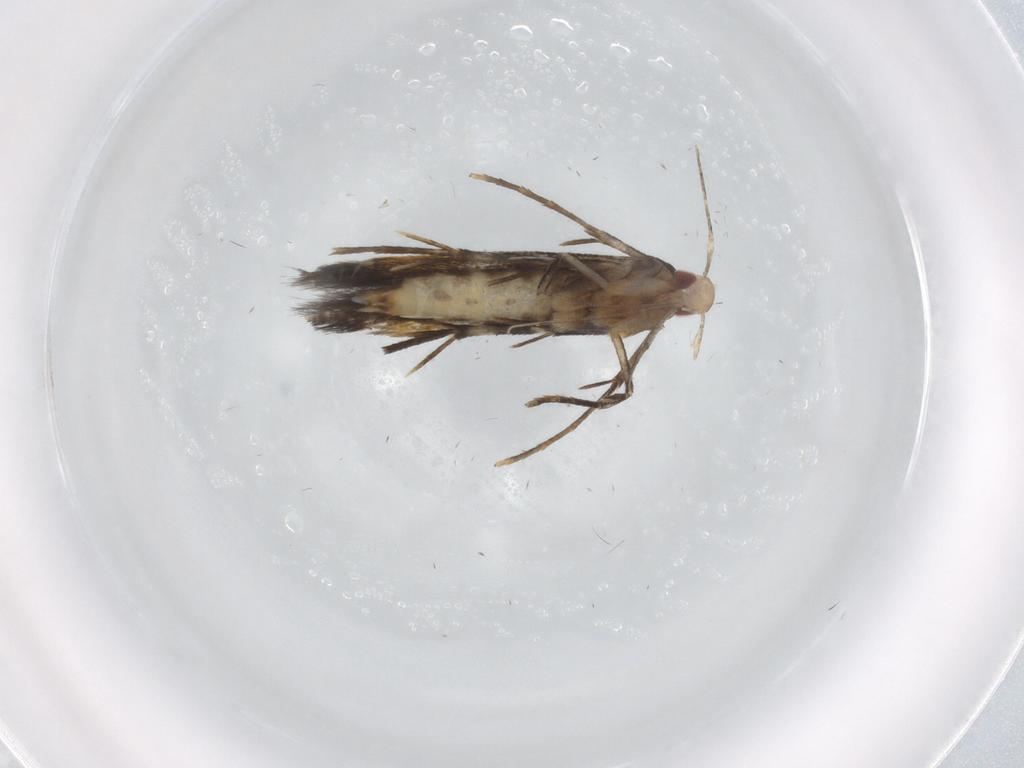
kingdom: Animalia
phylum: Arthropoda
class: Insecta
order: Lepidoptera
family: Cosmopterigidae
